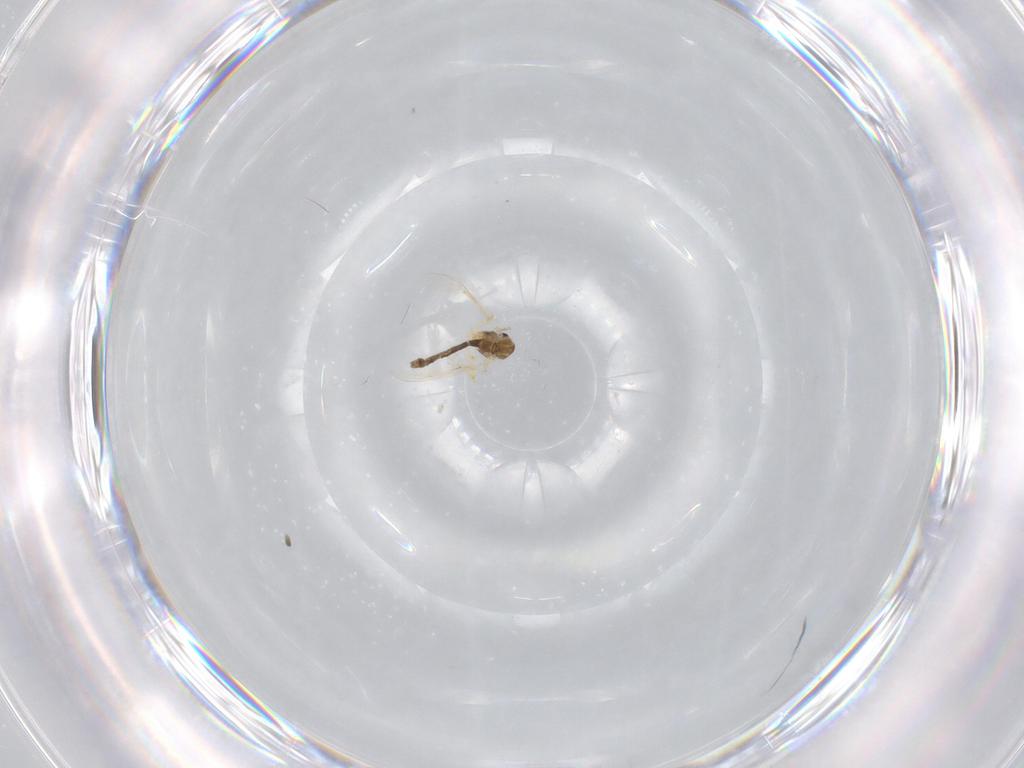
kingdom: Animalia
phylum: Arthropoda
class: Insecta
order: Diptera
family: Chironomidae
